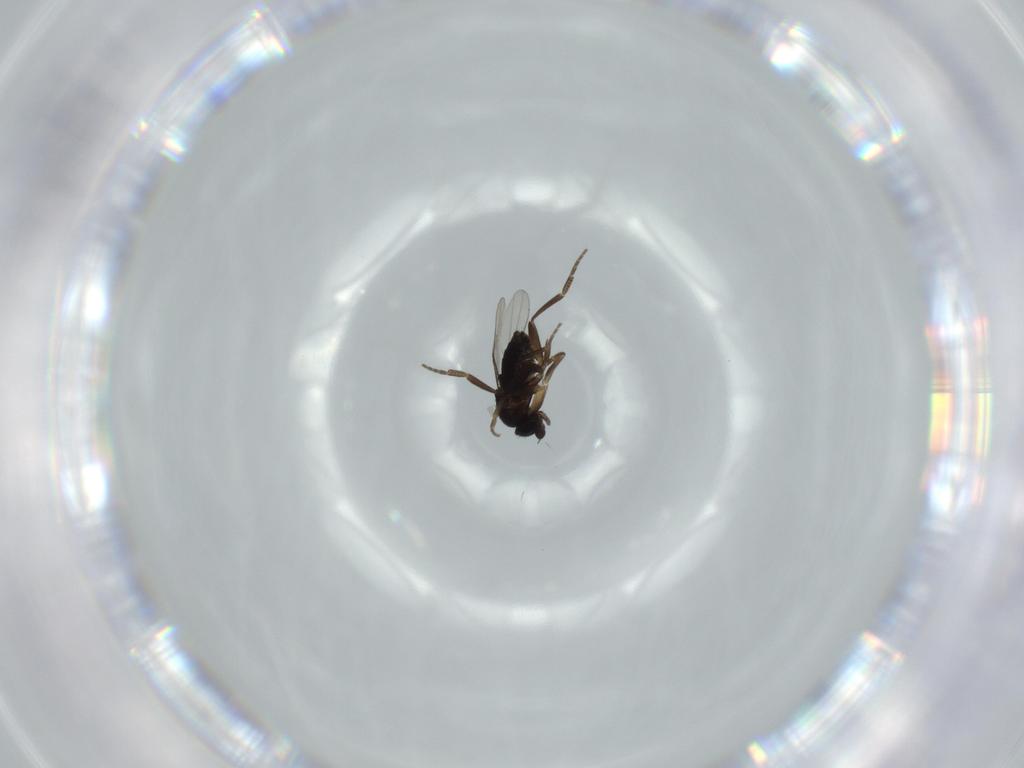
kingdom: Animalia
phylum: Arthropoda
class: Insecta
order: Diptera
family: Phoridae
